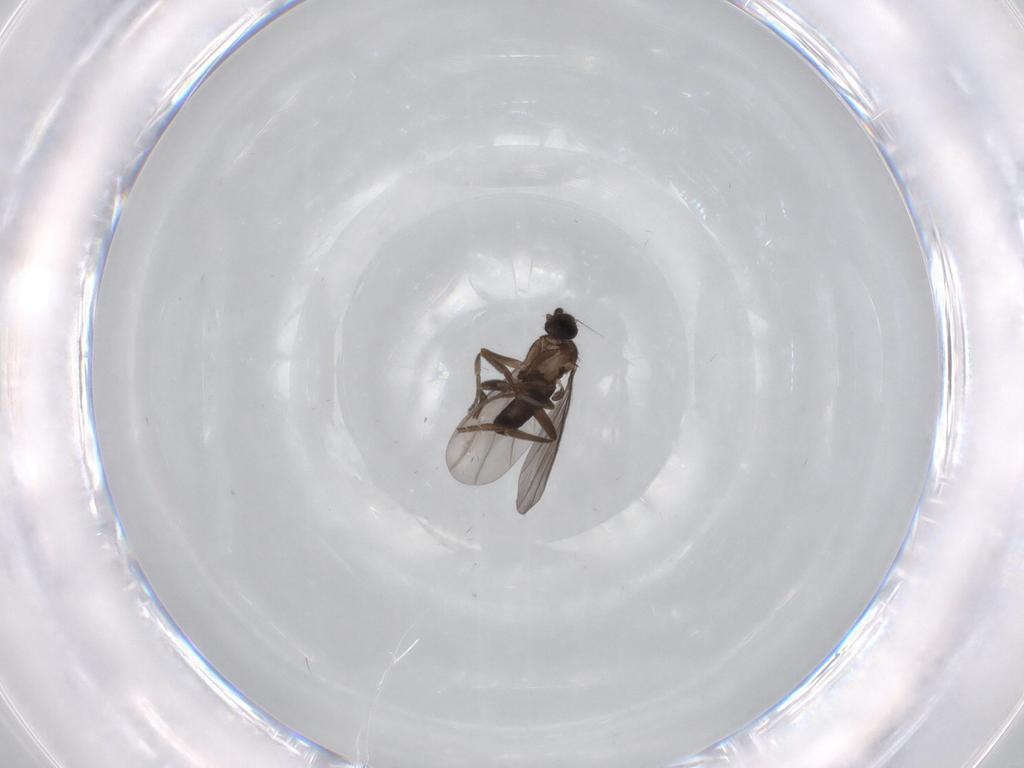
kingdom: Animalia
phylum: Arthropoda
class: Insecta
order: Diptera
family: Cecidomyiidae
